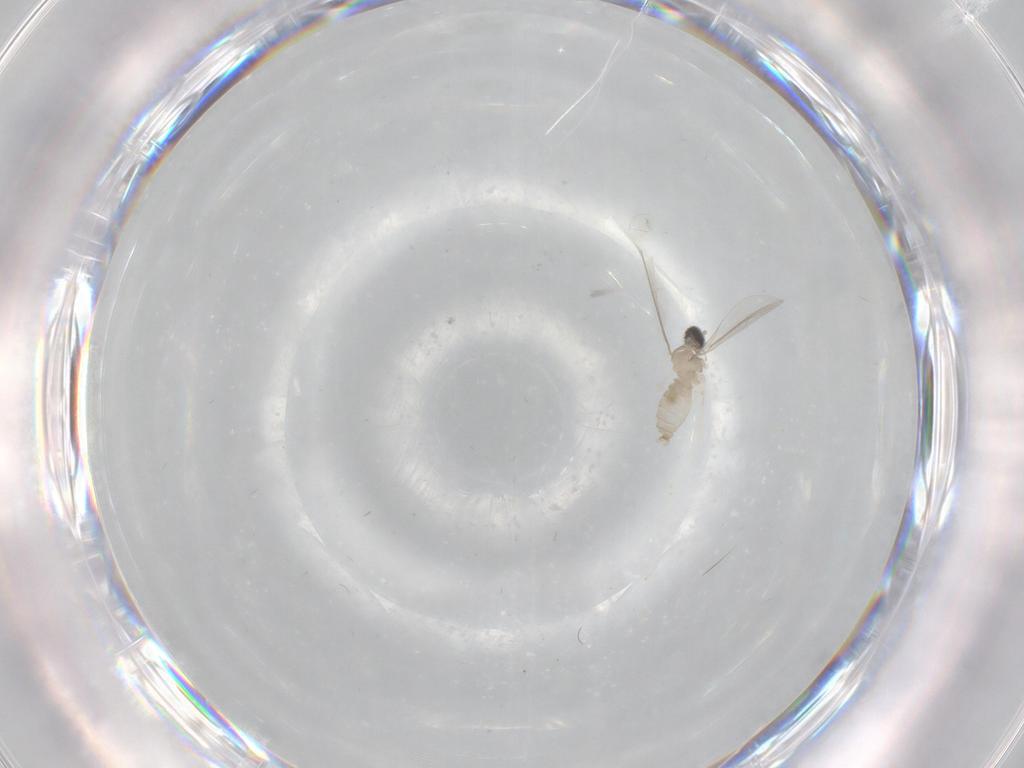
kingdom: Animalia
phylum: Arthropoda
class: Insecta
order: Diptera
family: Cecidomyiidae
